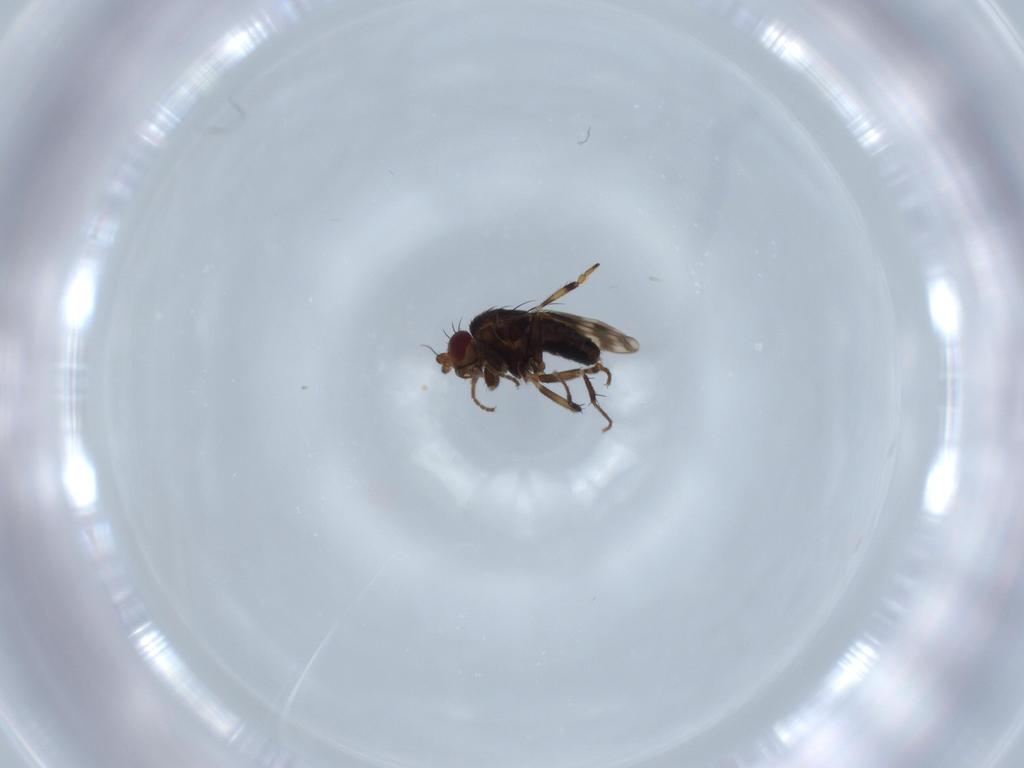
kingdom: Animalia
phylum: Arthropoda
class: Insecta
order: Diptera
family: Sphaeroceridae
